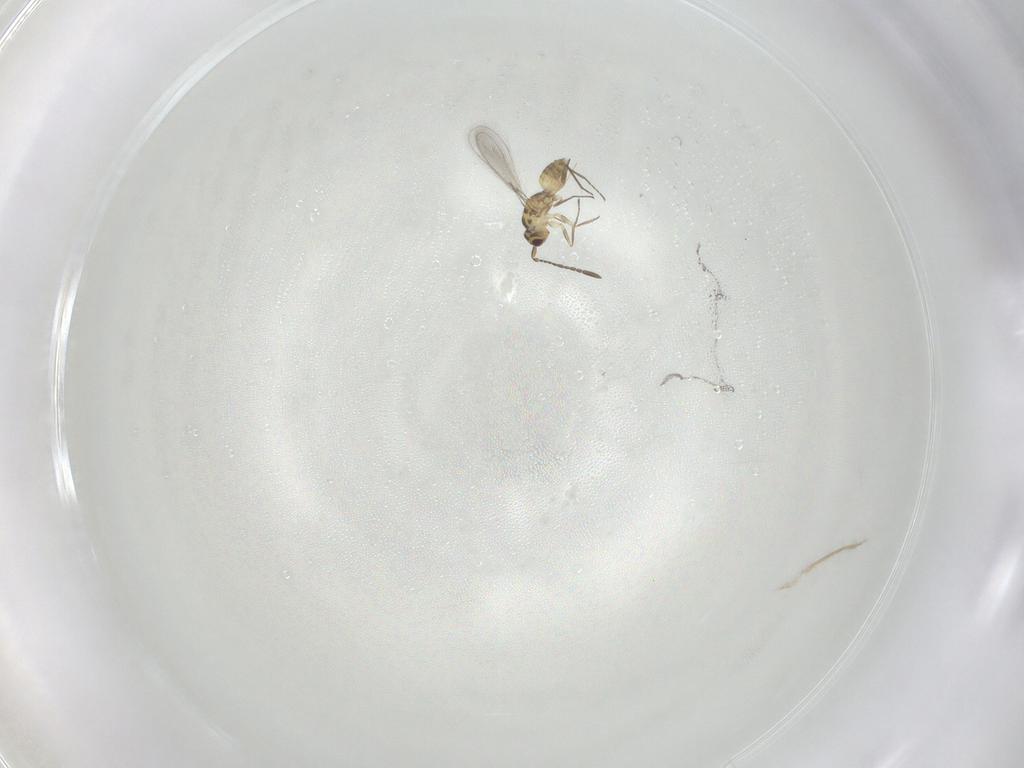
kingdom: Animalia
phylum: Arthropoda
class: Insecta
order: Hymenoptera
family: Mymaridae
